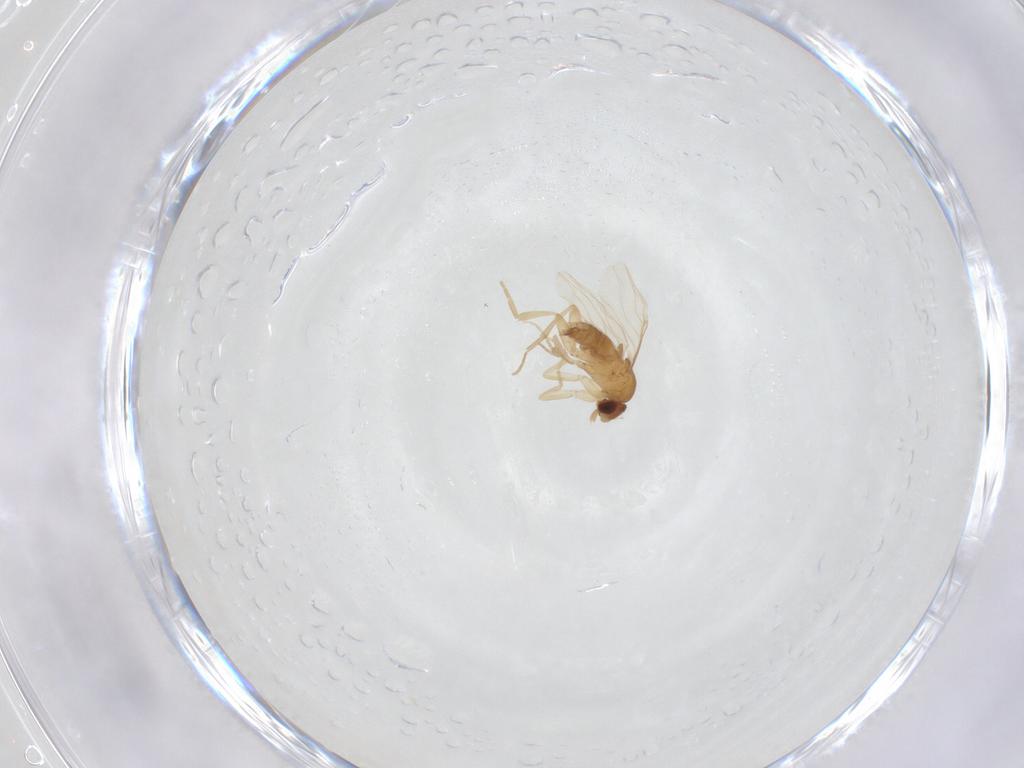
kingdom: Animalia
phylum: Arthropoda
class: Insecta
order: Diptera
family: Phoridae
